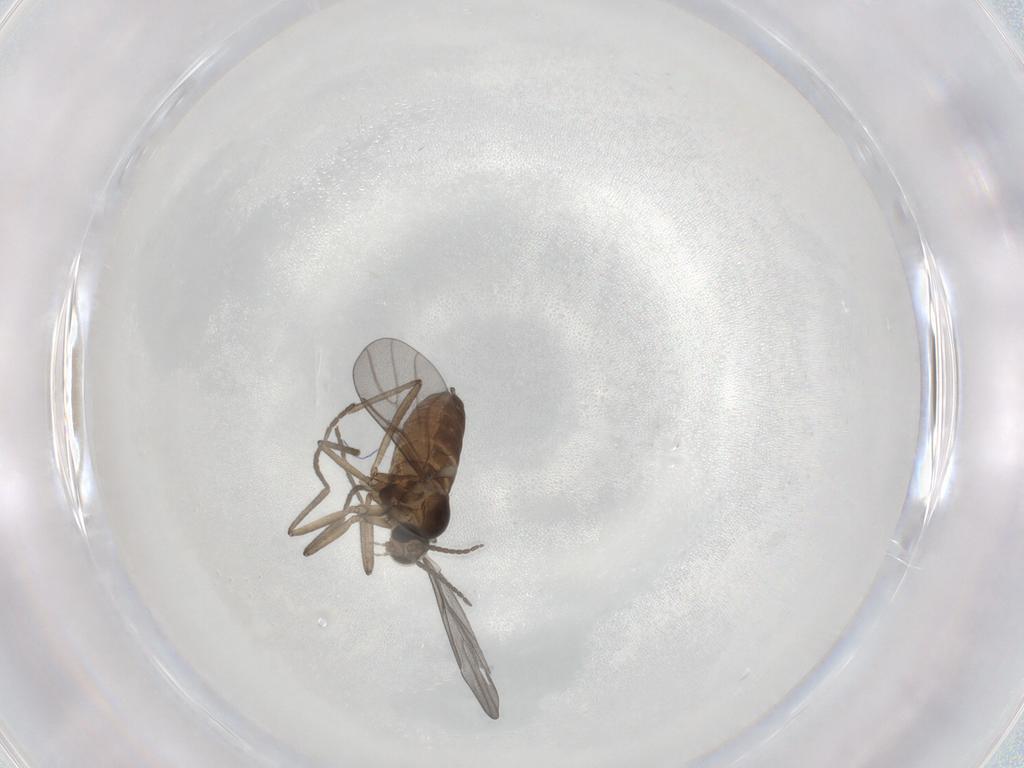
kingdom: Animalia
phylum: Arthropoda
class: Insecta
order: Diptera
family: Cecidomyiidae
